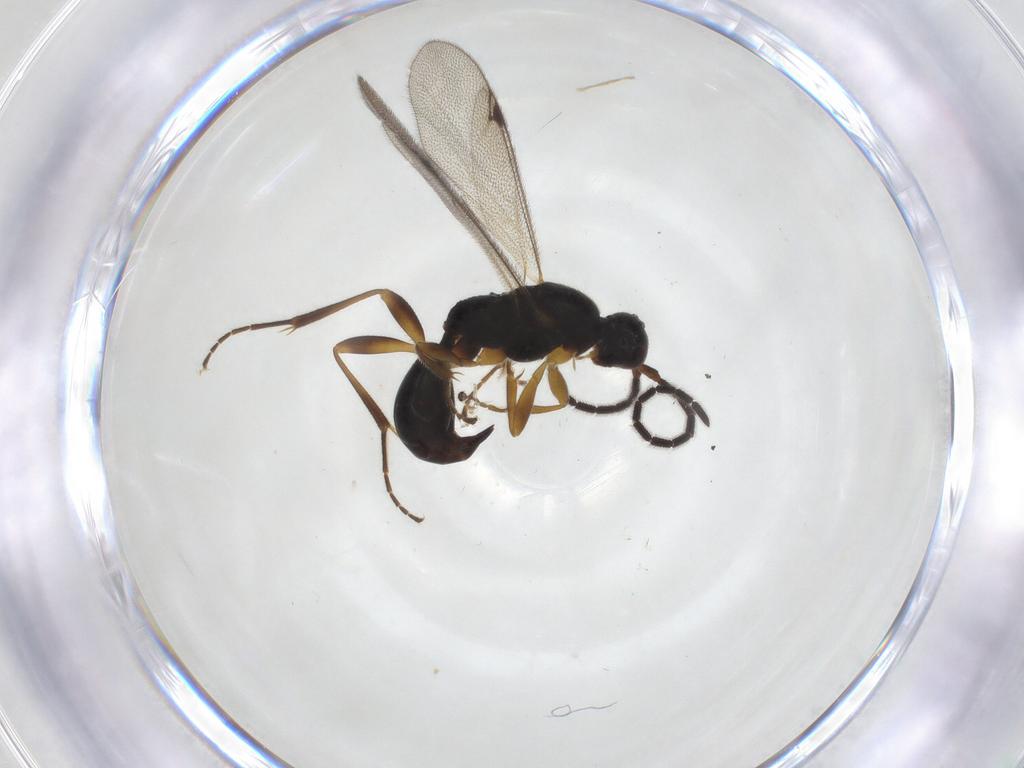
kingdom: Animalia
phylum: Arthropoda
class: Insecta
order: Hymenoptera
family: Proctotrupidae
